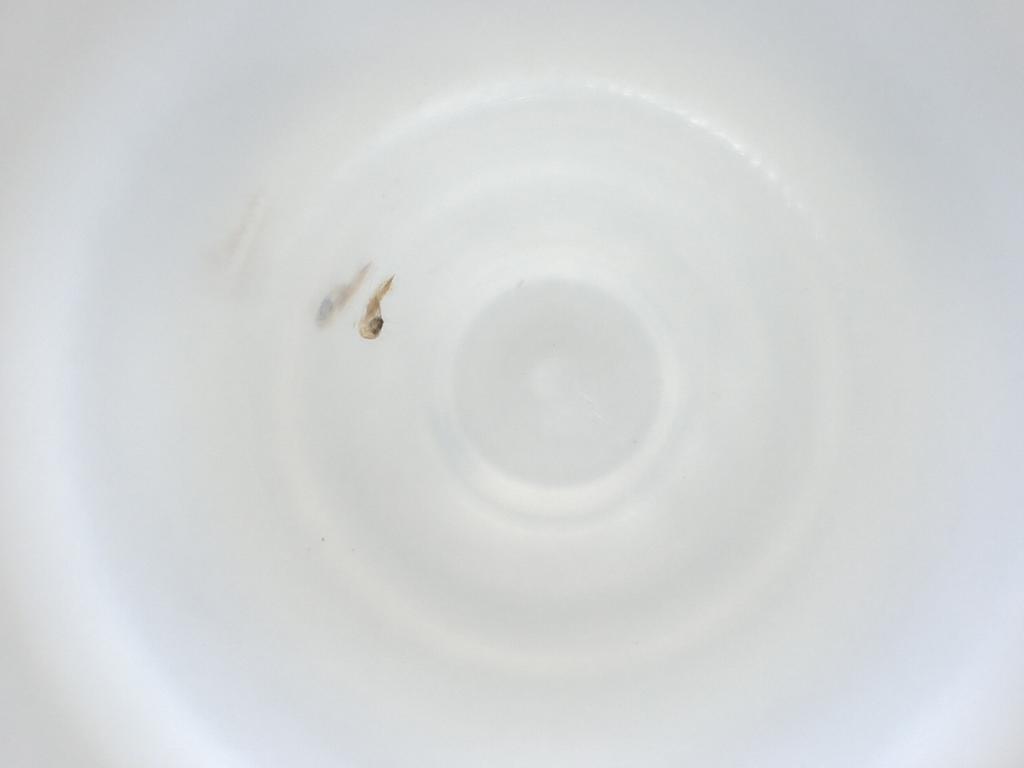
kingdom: Animalia
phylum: Arthropoda
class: Insecta
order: Diptera
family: Cecidomyiidae
